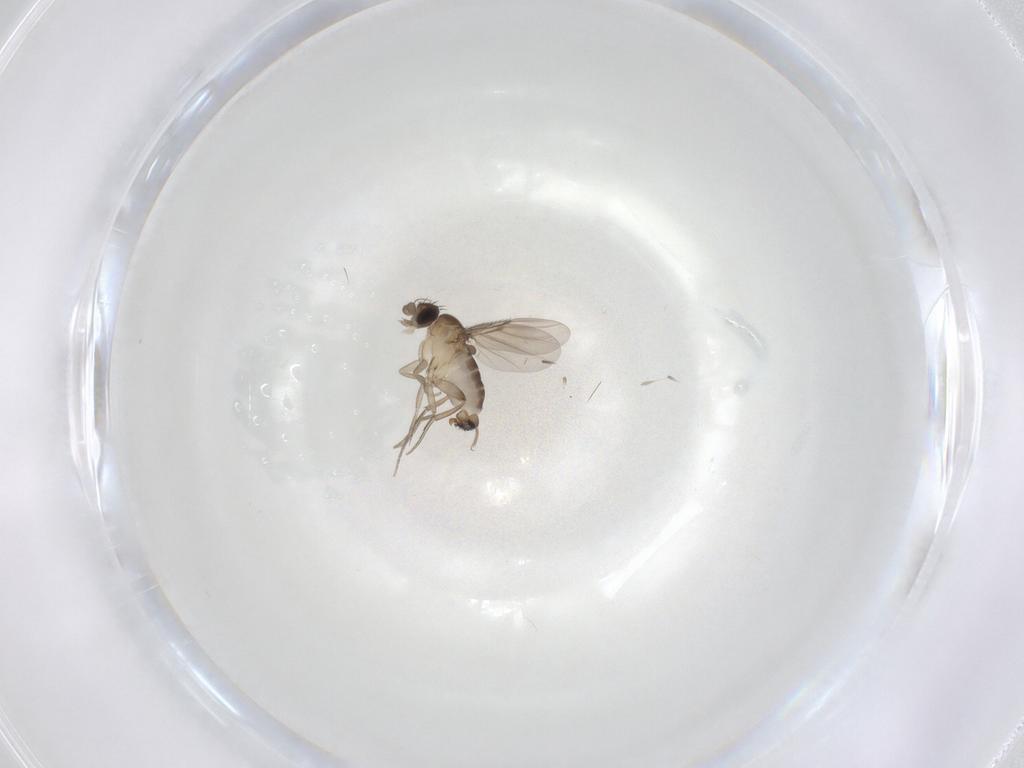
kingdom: Animalia
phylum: Arthropoda
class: Insecta
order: Diptera
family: Phoridae
